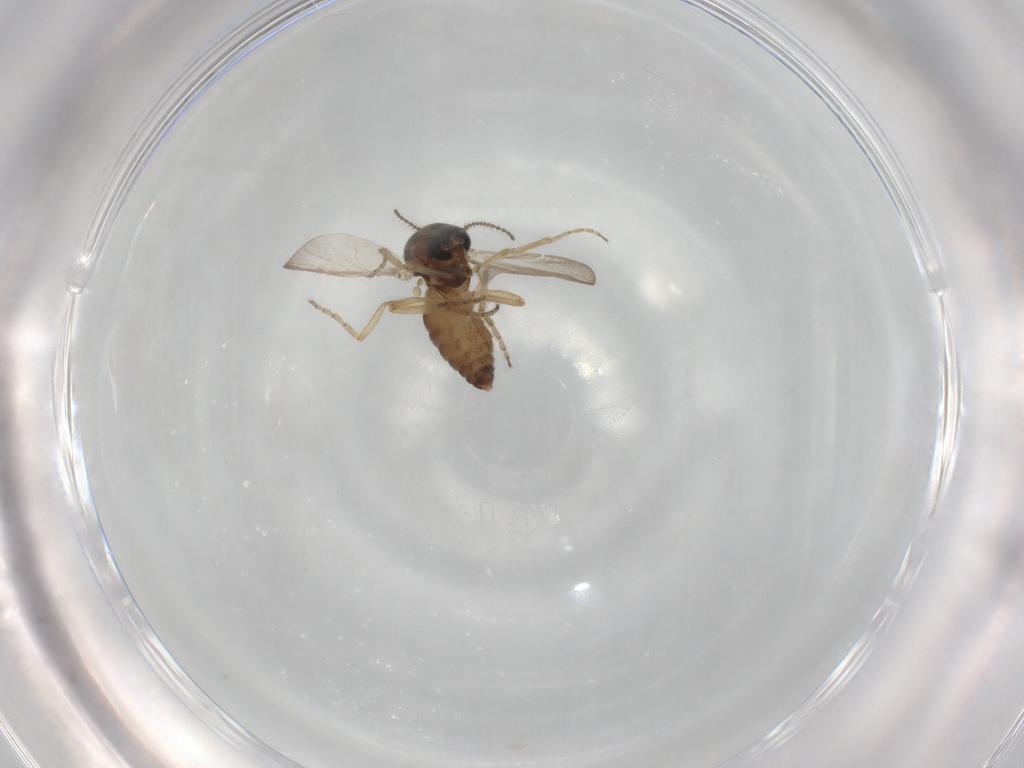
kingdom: Animalia
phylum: Arthropoda
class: Insecta
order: Diptera
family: Ceratopogonidae
